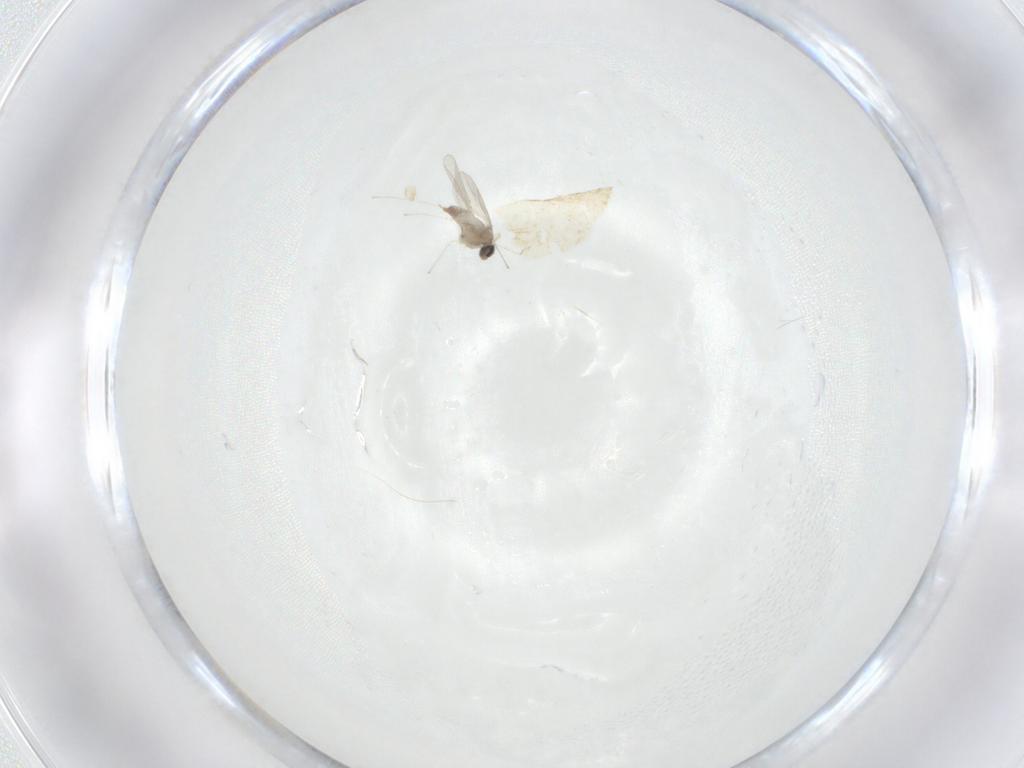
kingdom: Animalia
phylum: Arthropoda
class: Insecta
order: Diptera
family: Cecidomyiidae
